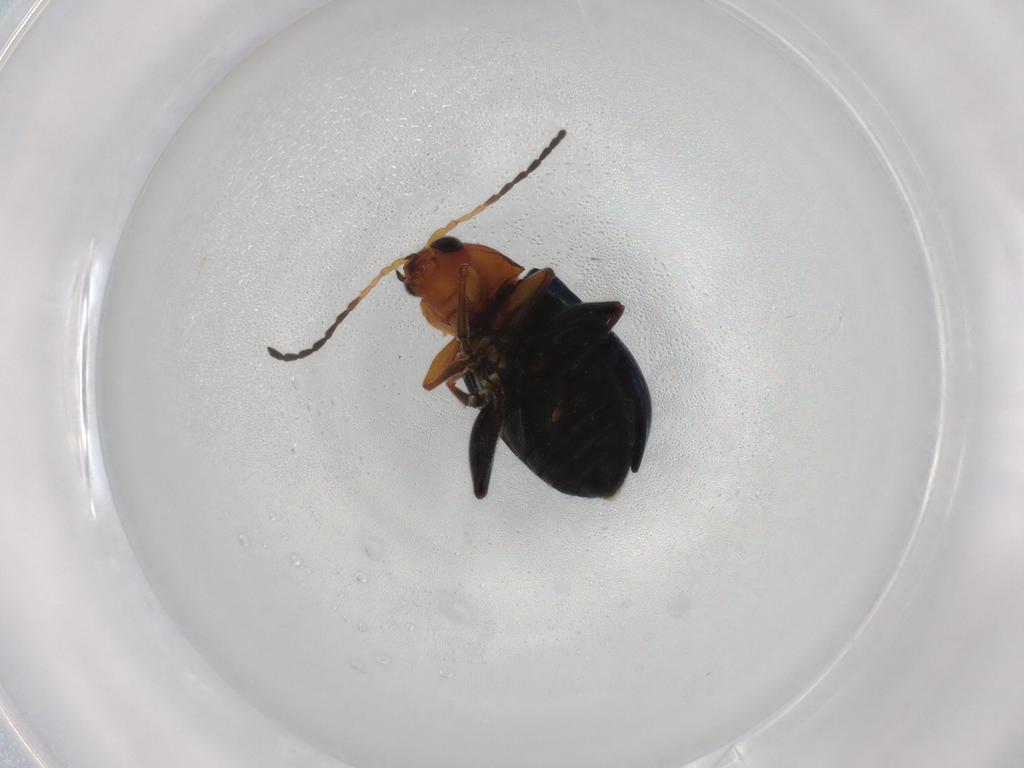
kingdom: Animalia
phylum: Arthropoda
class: Insecta
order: Coleoptera
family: Chrysomelidae
